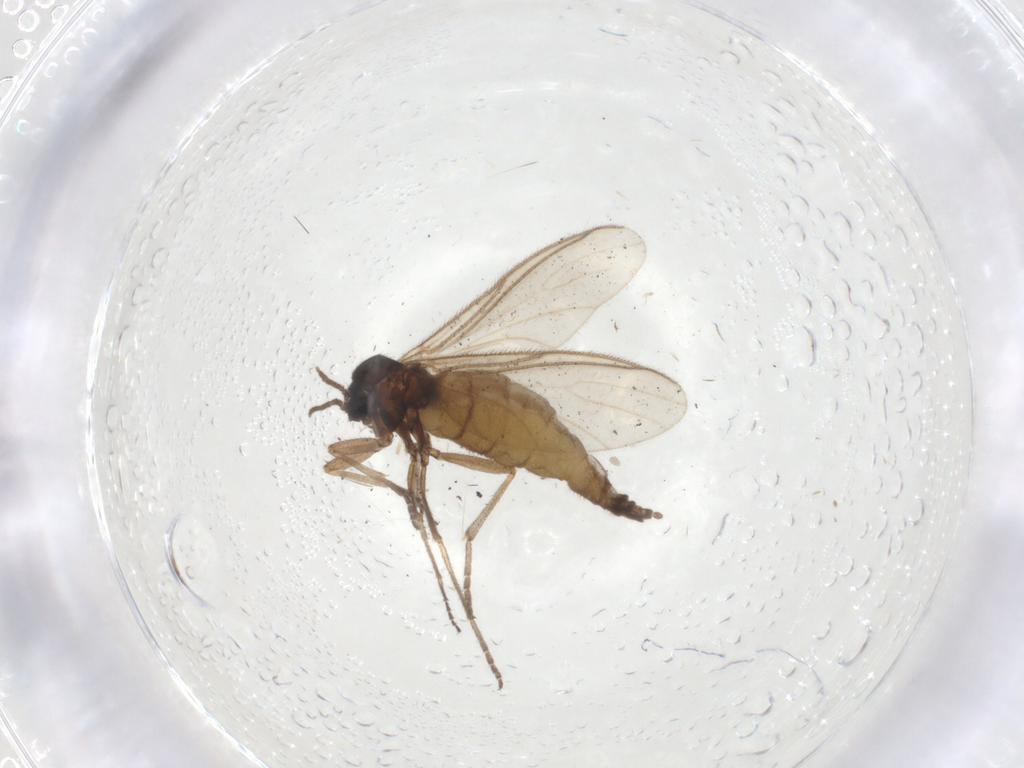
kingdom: Animalia
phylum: Arthropoda
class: Insecta
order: Diptera
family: Sciaridae
